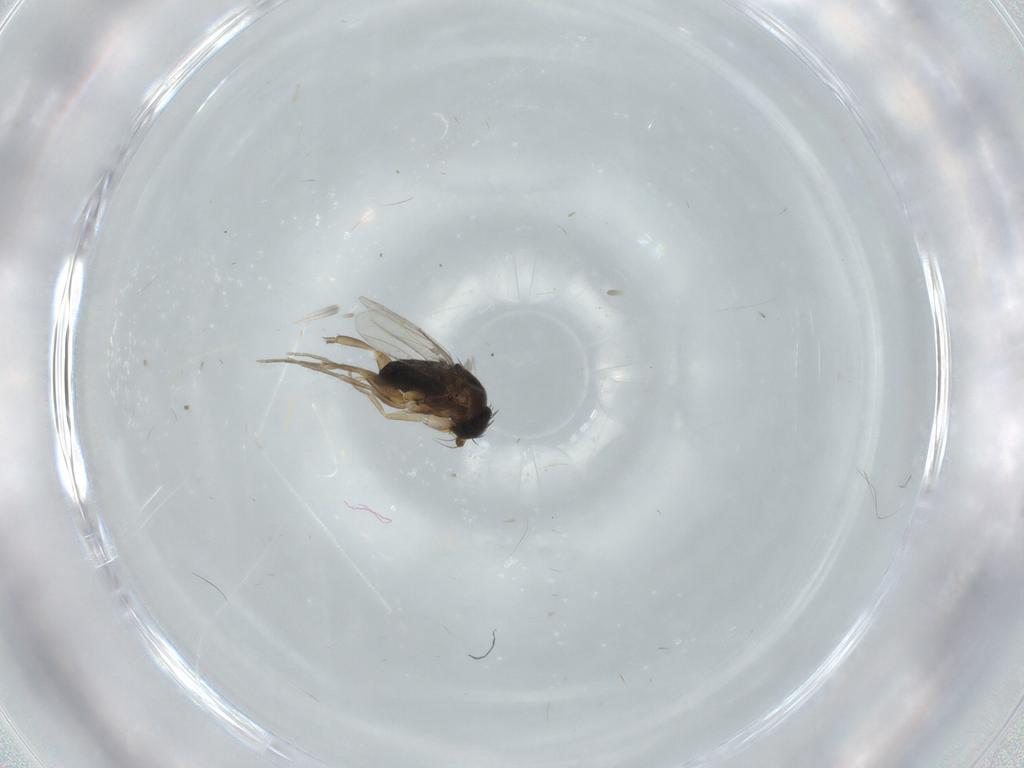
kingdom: Animalia
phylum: Arthropoda
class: Insecta
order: Diptera
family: Phoridae
